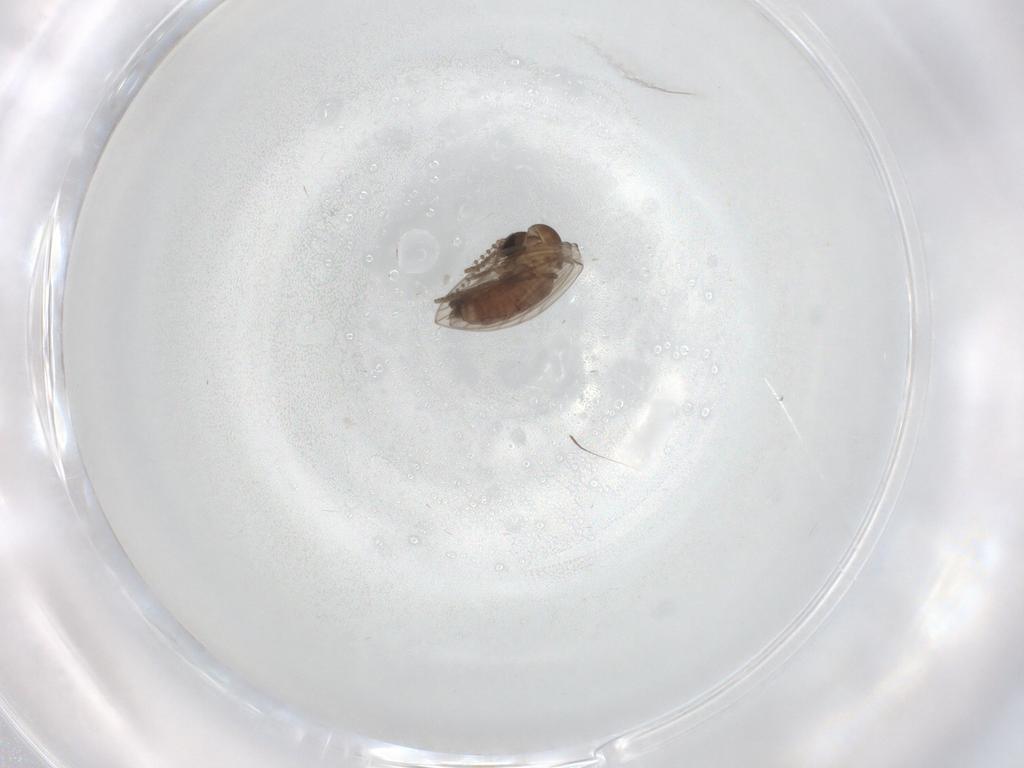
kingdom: Animalia
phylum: Arthropoda
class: Insecta
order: Diptera
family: Psychodidae
